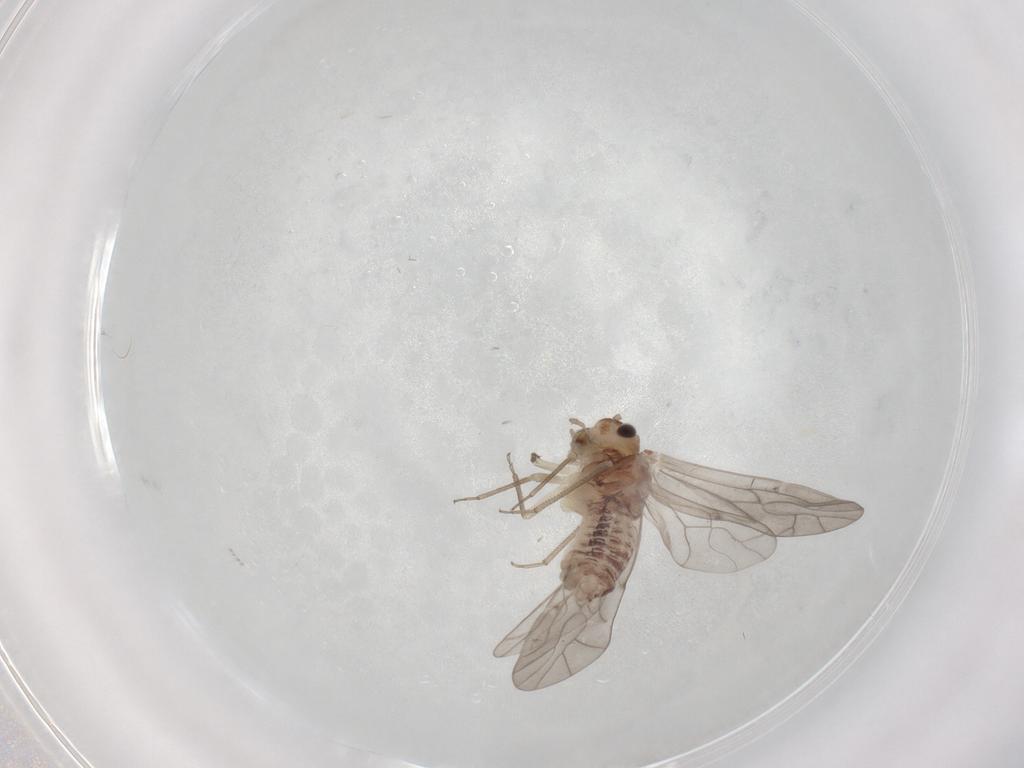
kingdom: Animalia
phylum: Arthropoda
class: Insecta
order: Psocodea
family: Peripsocidae
